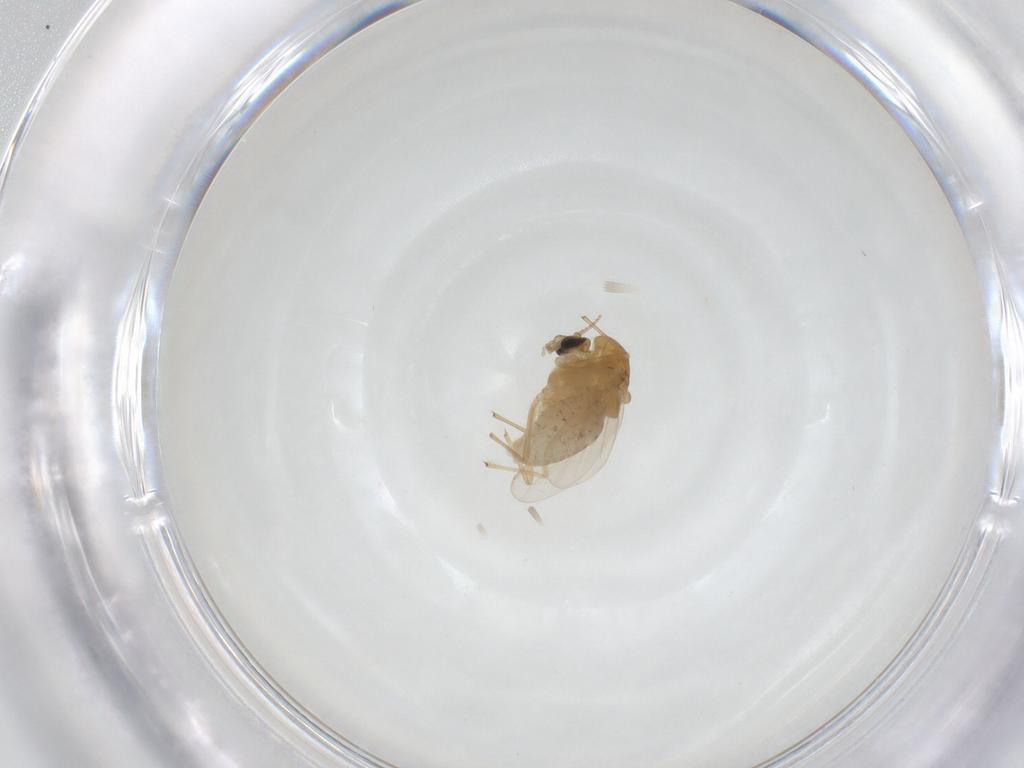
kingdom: Animalia
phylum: Arthropoda
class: Insecta
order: Diptera
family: Chironomidae
